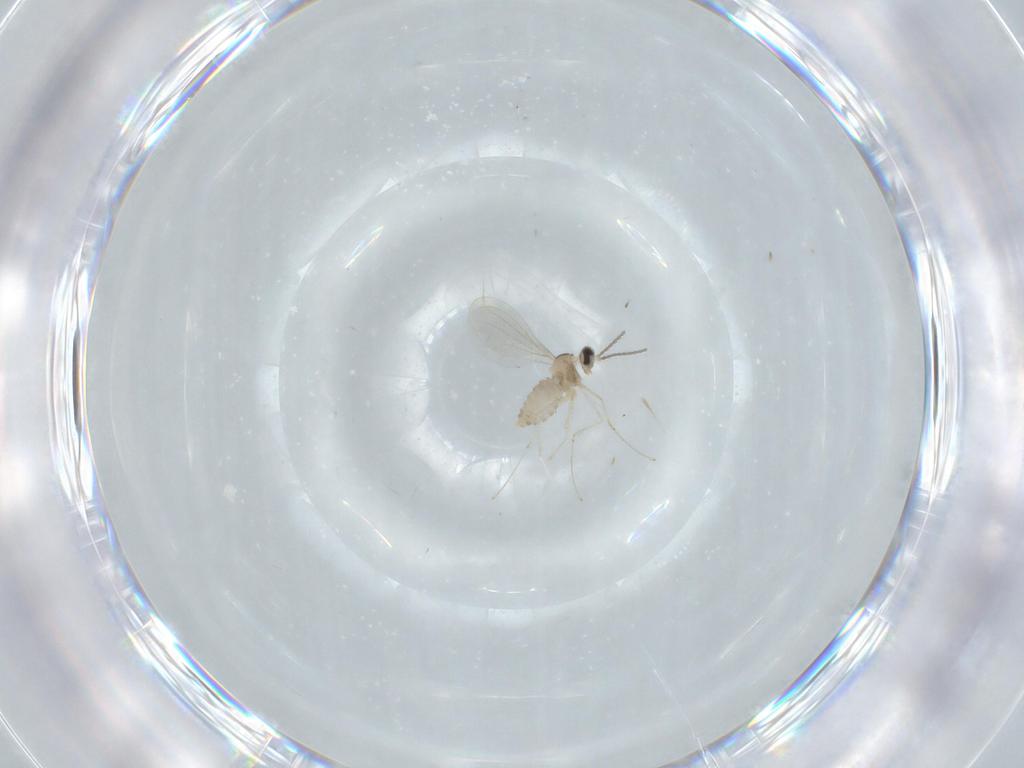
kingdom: Animalia
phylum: Arthropoda
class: Insecta
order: Diptera
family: Cecidomyiidae
